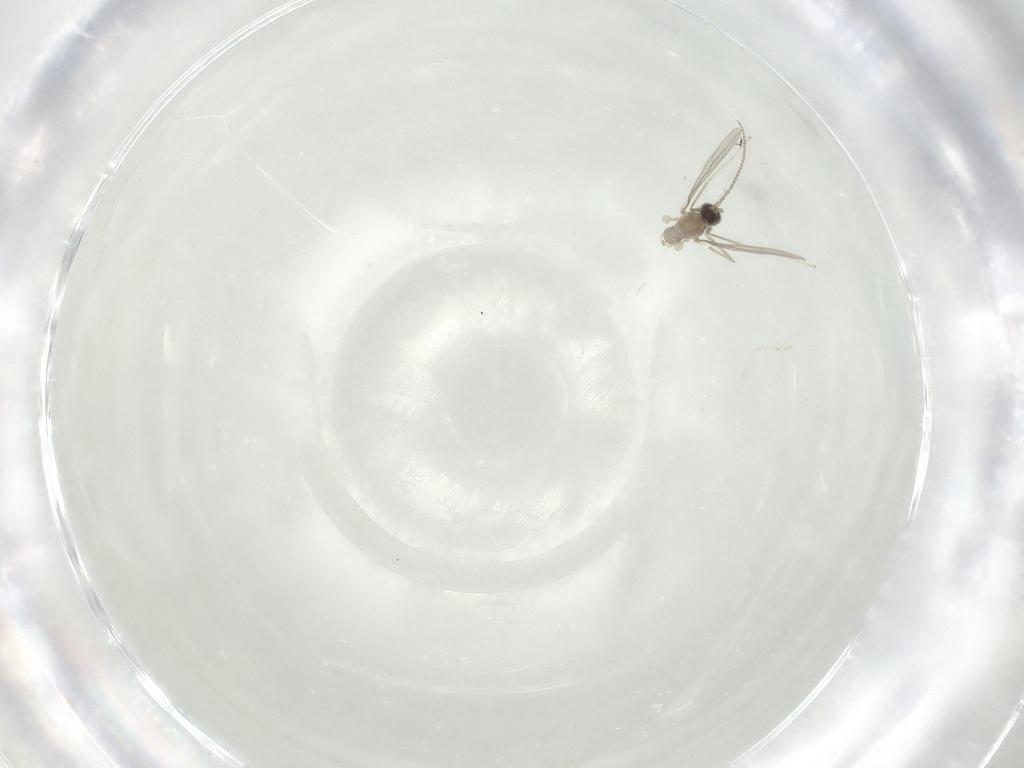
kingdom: Animalia
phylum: Arthropoda
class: Insecta
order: Diptera
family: Cecidomyiidae
